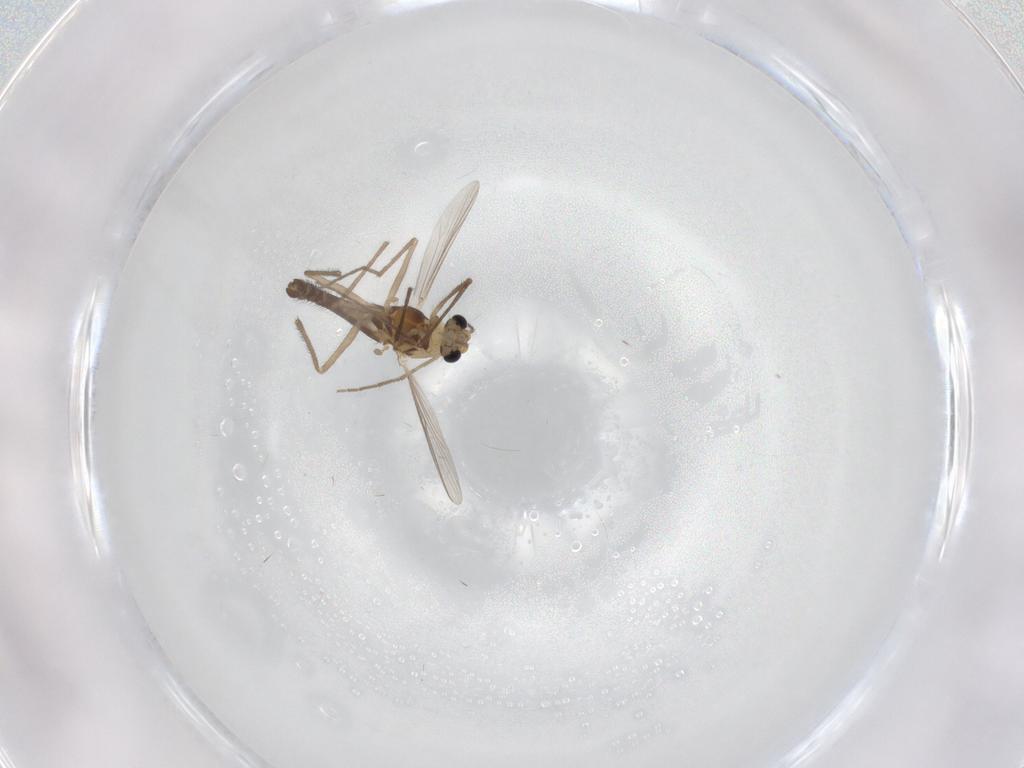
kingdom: Animalia
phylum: Arthropoda
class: Insecta
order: Diptera
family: Chironomidae
